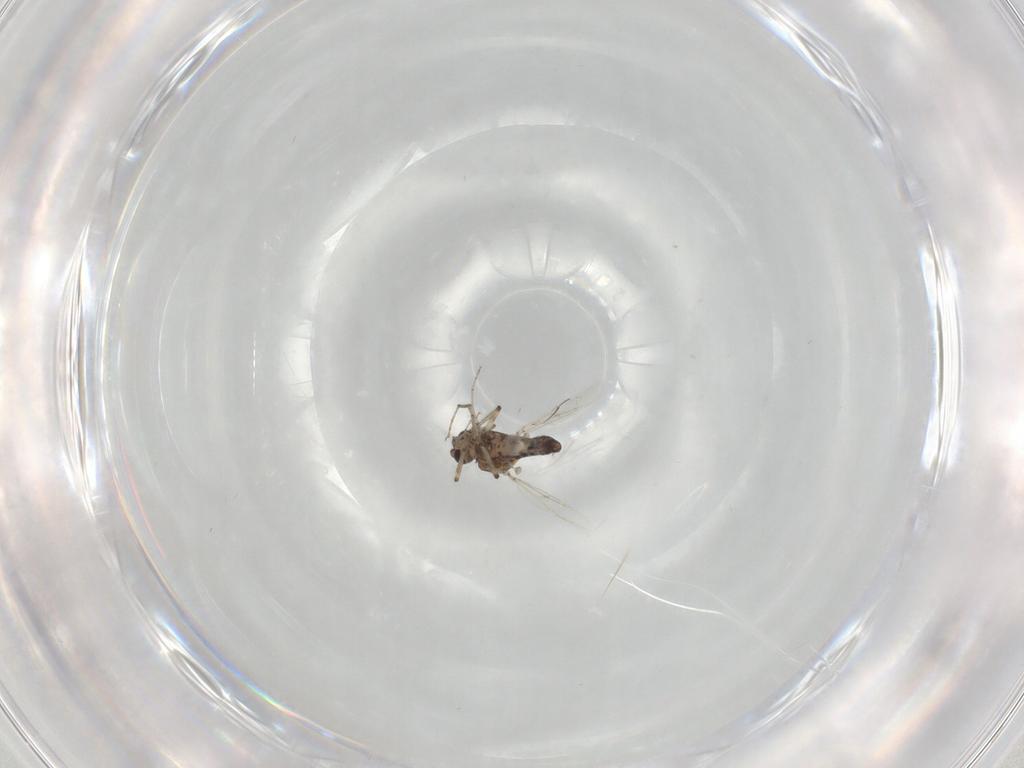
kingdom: Animalia
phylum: Arthropoda
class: Insecta
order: Diptera
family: Ceratopogonidae
